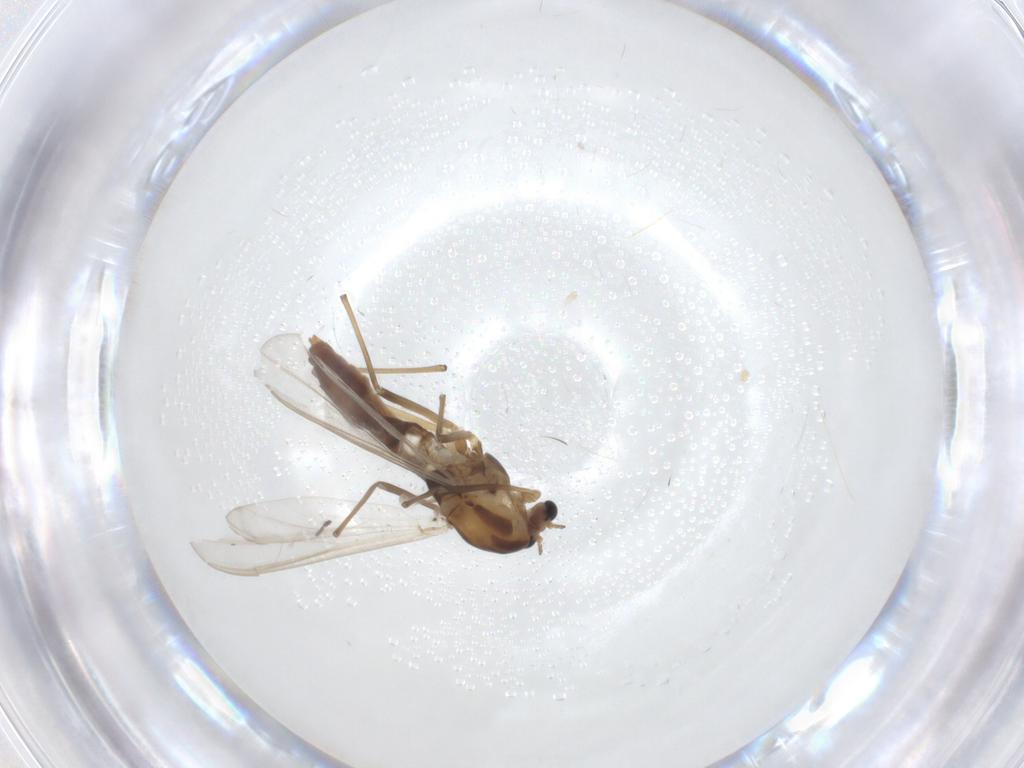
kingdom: Animalia
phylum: Arthropoda
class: Insecta
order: Diptera
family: Chironomidae
